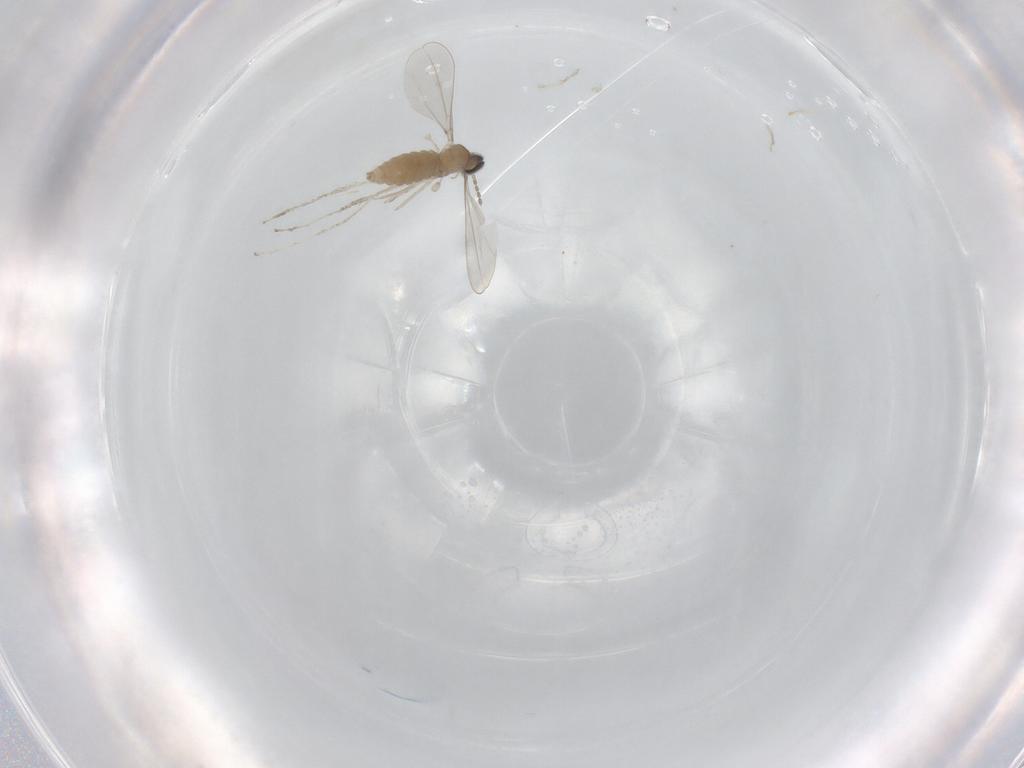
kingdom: Animalia
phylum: Arthropoda
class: Insecta
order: Diptera
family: Cecidomyiidae
